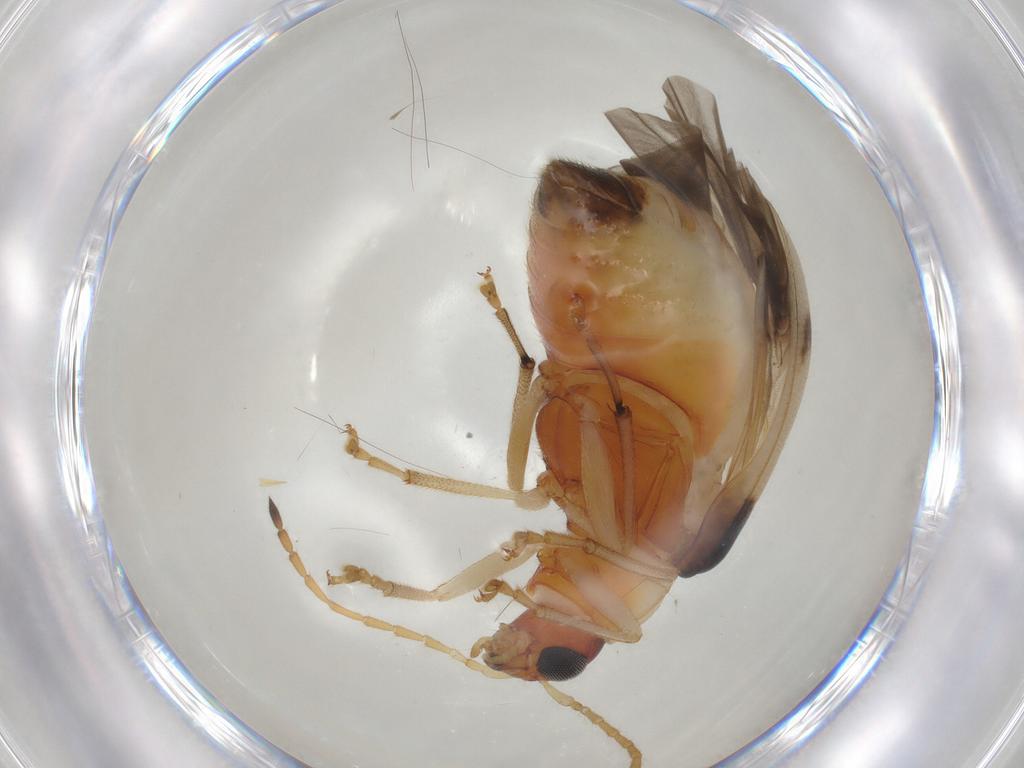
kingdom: Animalia
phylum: Arthropoda
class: Insecta
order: Coleoptera
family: Chrysomelidae
